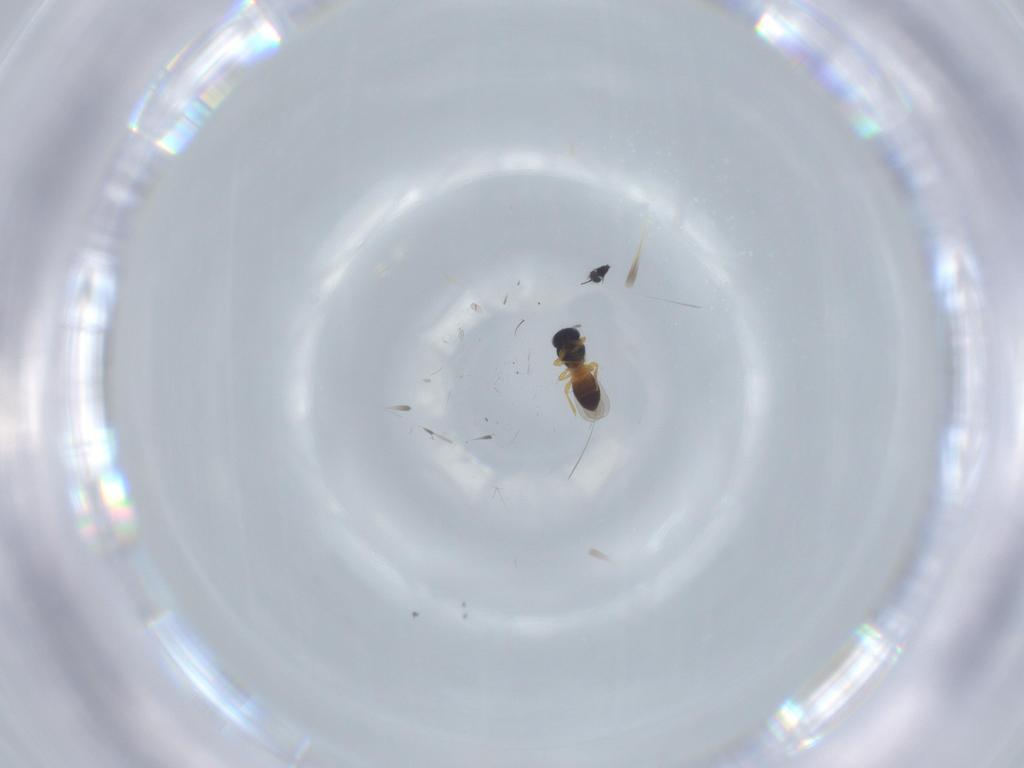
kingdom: Animalia
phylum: Arthropoda
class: Insecta
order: Hymenoptera
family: Platygastridae
